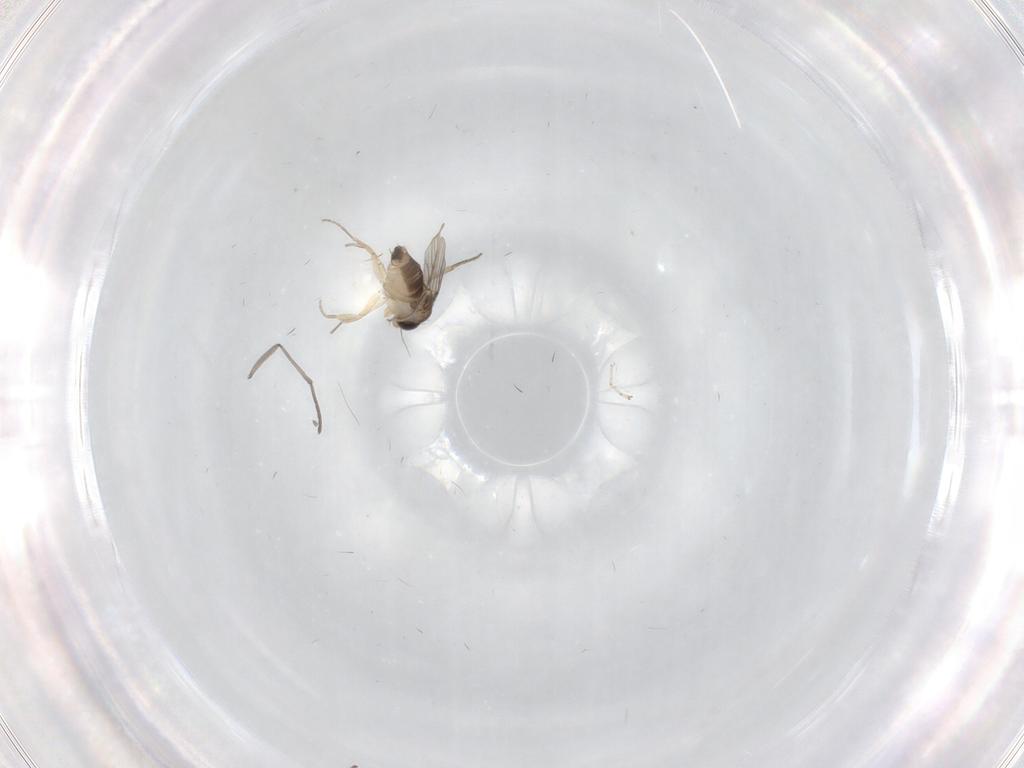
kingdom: Animalia
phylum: Arthropoda
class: Insecta
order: Diptera
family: Phoridae
